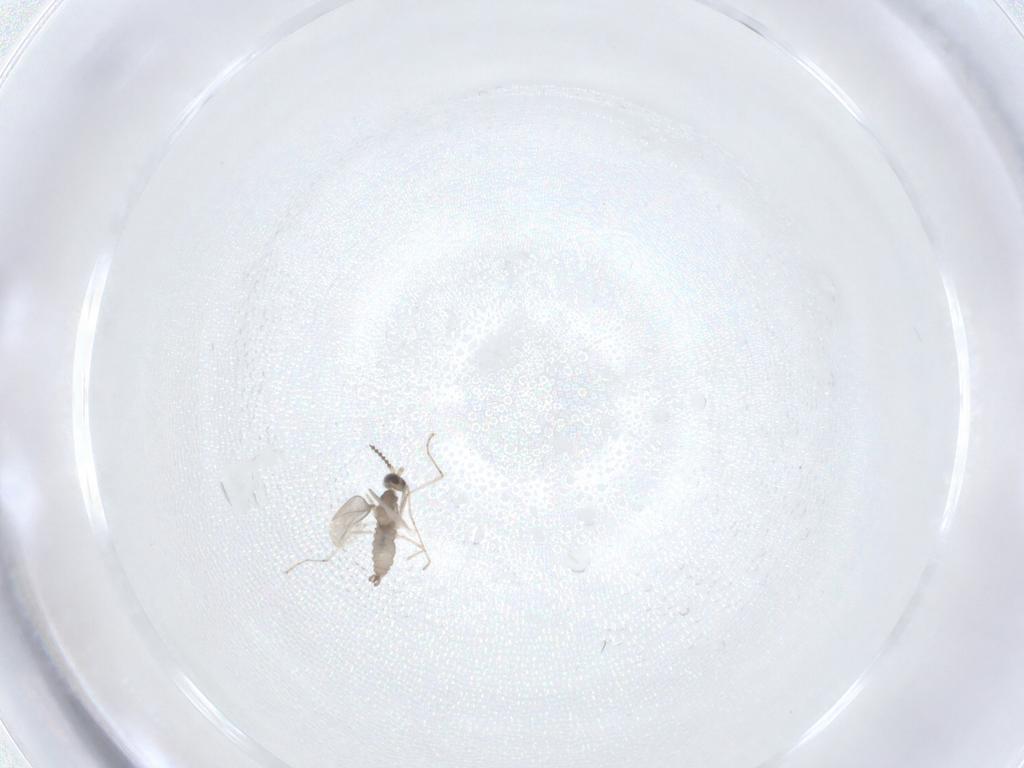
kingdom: Animalia
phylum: Arthropoda
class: Insecta
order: Diptera
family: Cecidomyiidae
